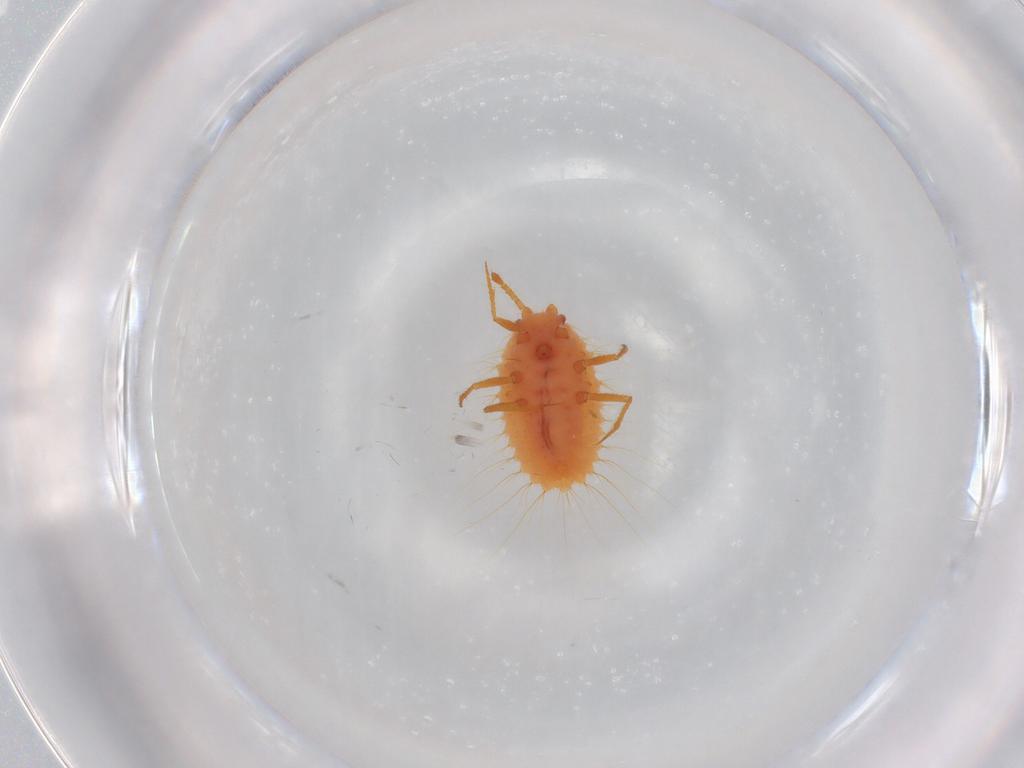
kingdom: Animalia
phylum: Arthropoda
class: Insecta
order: Hemiptera
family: Coccoidea_incertae_sedis
